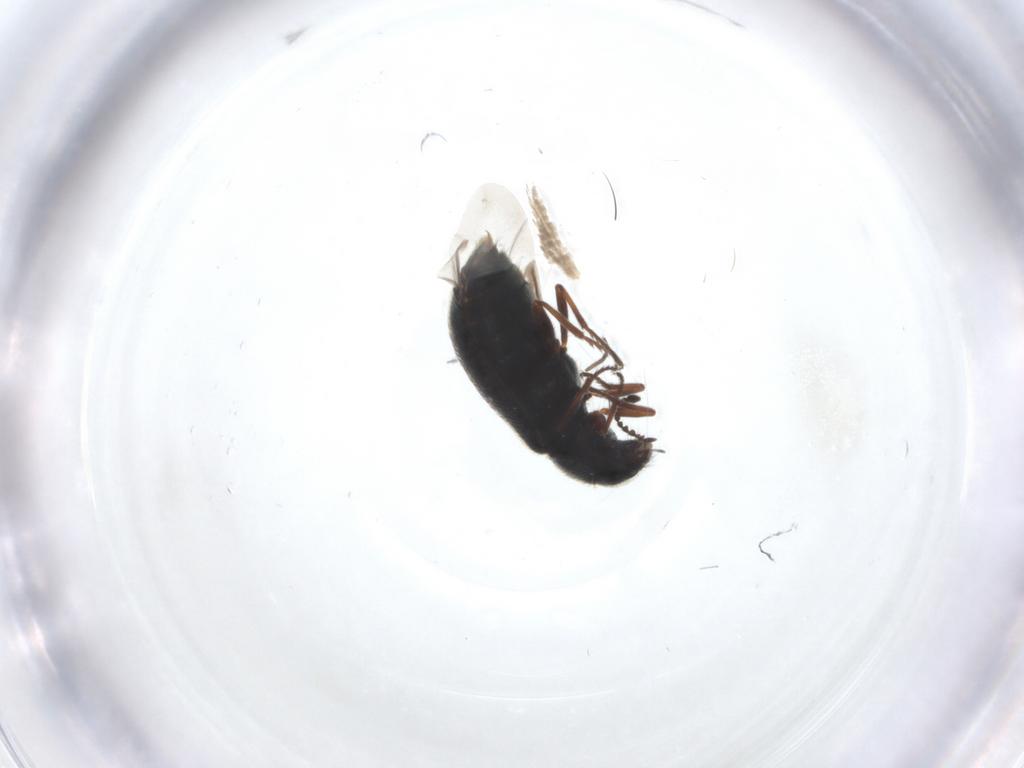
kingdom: Animalia
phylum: Arthropoda
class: Insecta
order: Coleoptera
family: Melyridae
